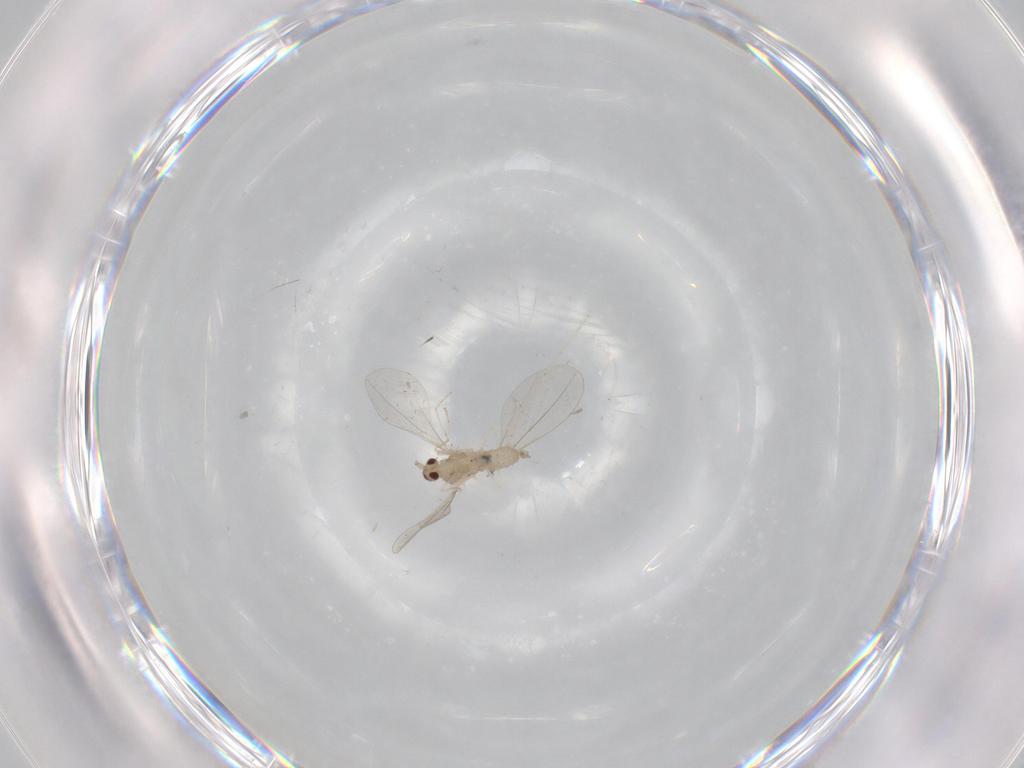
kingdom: Animalia
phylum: Arthropoda
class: Insecta
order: Diptera
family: Cecidomyiidae
